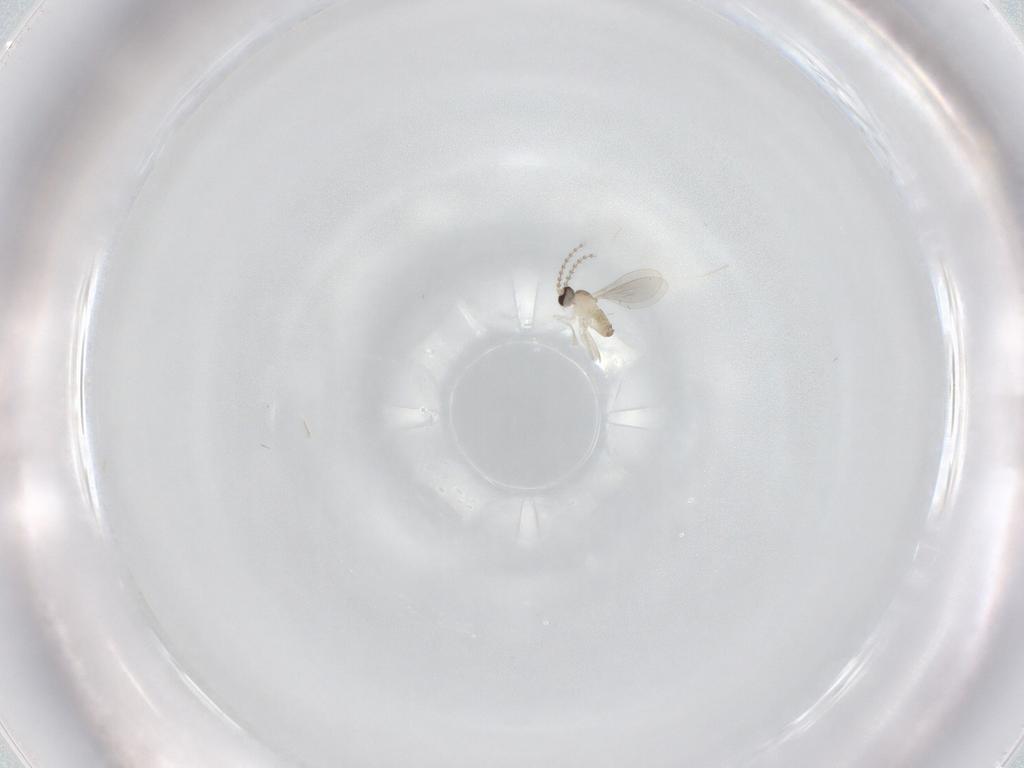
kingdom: Animalia
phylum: Arthropoda
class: Insecta
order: Diptera
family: Cecidomyiidae
